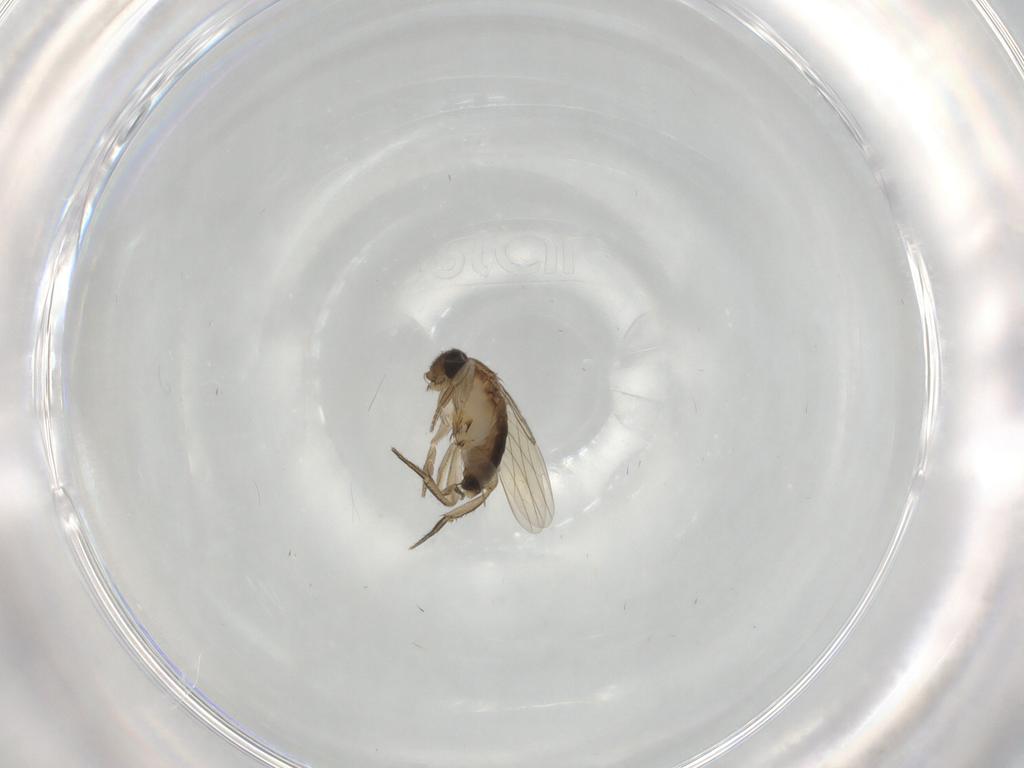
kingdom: Animalia
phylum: Arthropoda
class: Insecta
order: Diptera
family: Phoridae
